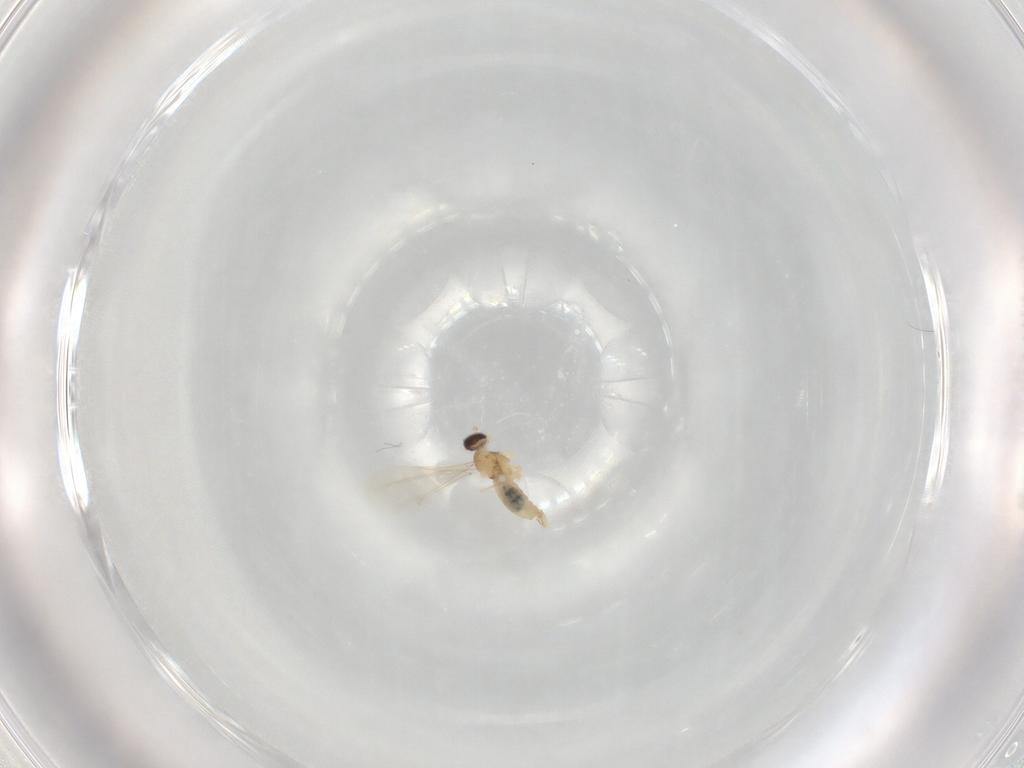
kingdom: Animalia
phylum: Arthropoda
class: Insecta
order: Diptera
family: Cecidomyiidae
